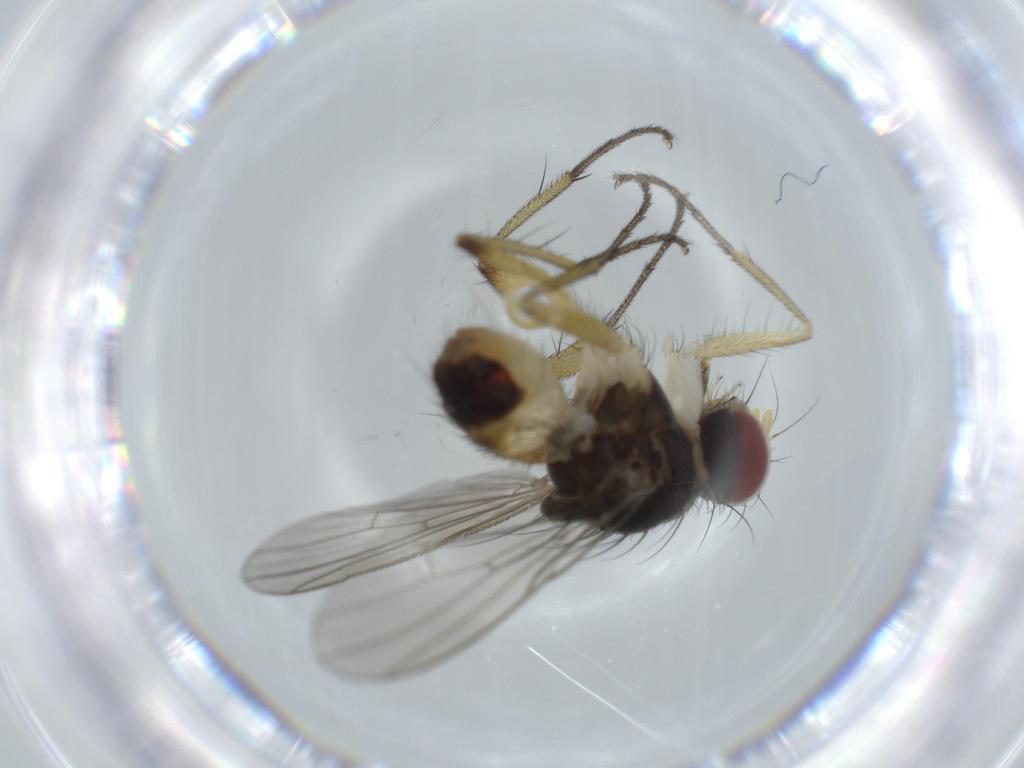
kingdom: Animalia
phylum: Arthropoda
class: Insecta
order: Diptera
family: Muscidae
